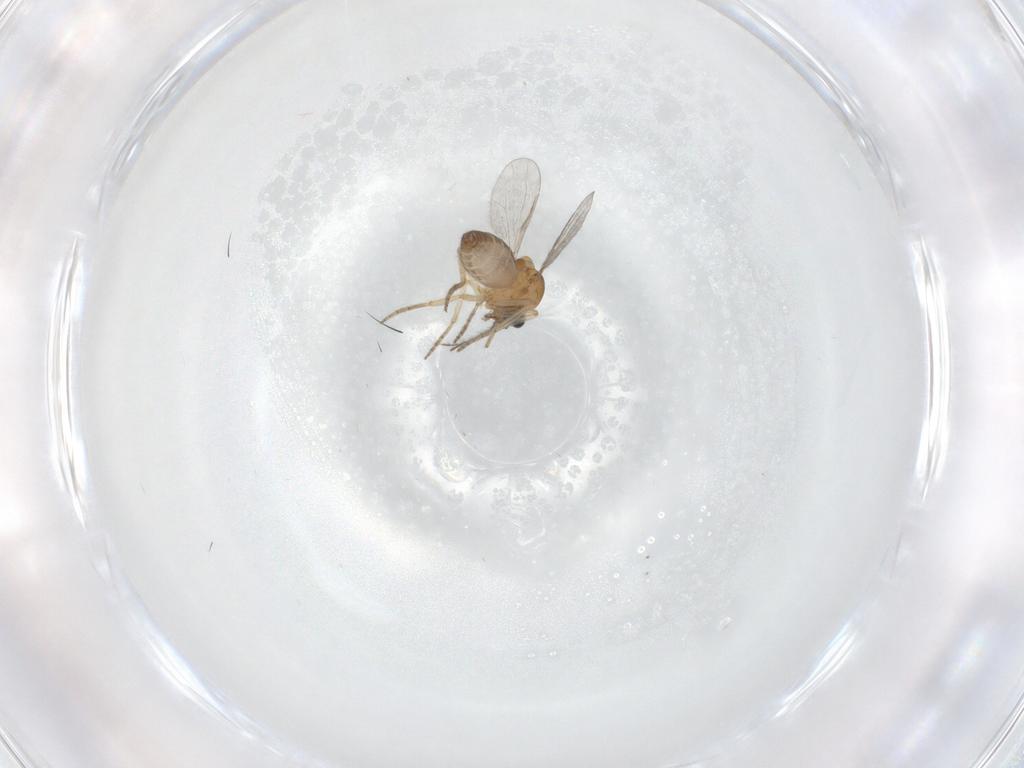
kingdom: Animalia
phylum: Arthropoda
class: Insecta
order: Diptera
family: Ceratopogonidae
